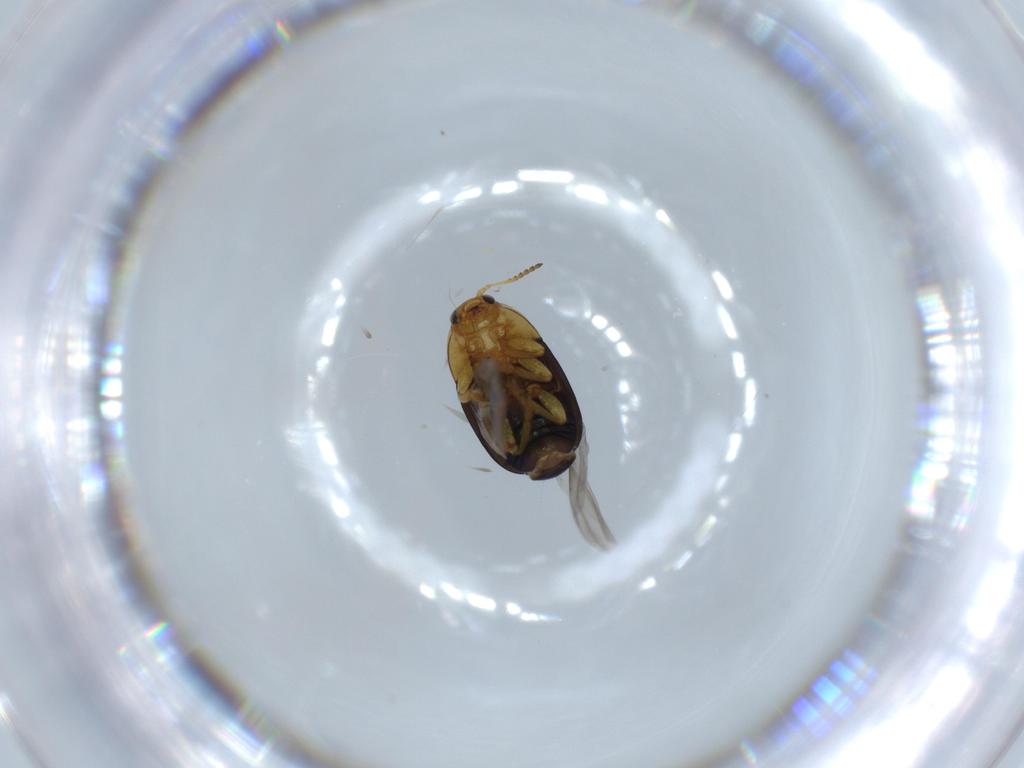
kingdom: Animalia
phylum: Arthropoda
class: Insecta
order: Coleoptera
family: Chrysomelidae
